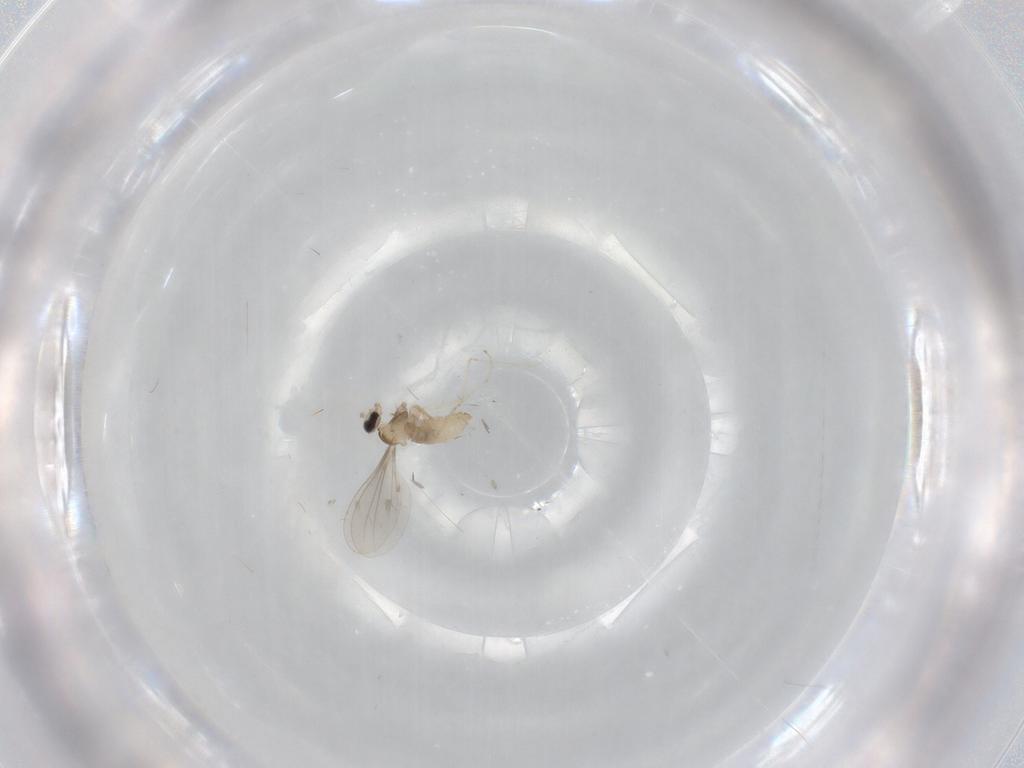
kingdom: Animalia
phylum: Arthropoda
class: Insecta
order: Diptera
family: Cecidomyiidae
